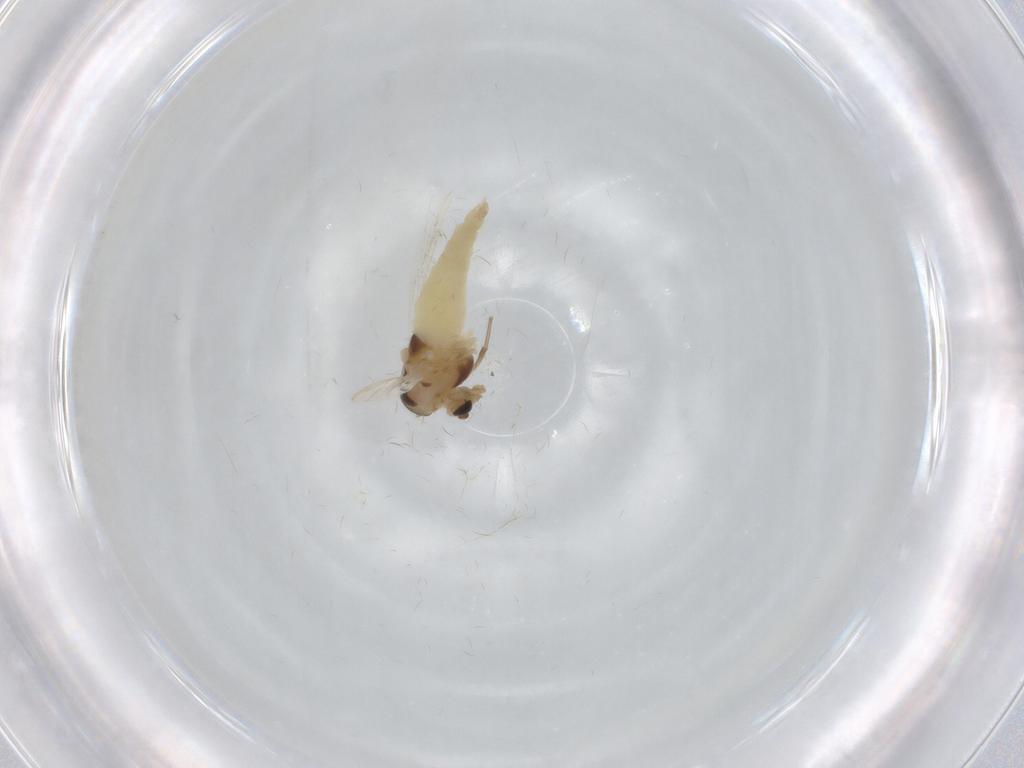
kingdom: Animalia
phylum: Arthropoda
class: Insecta
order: Diptera
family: Chironomidae
